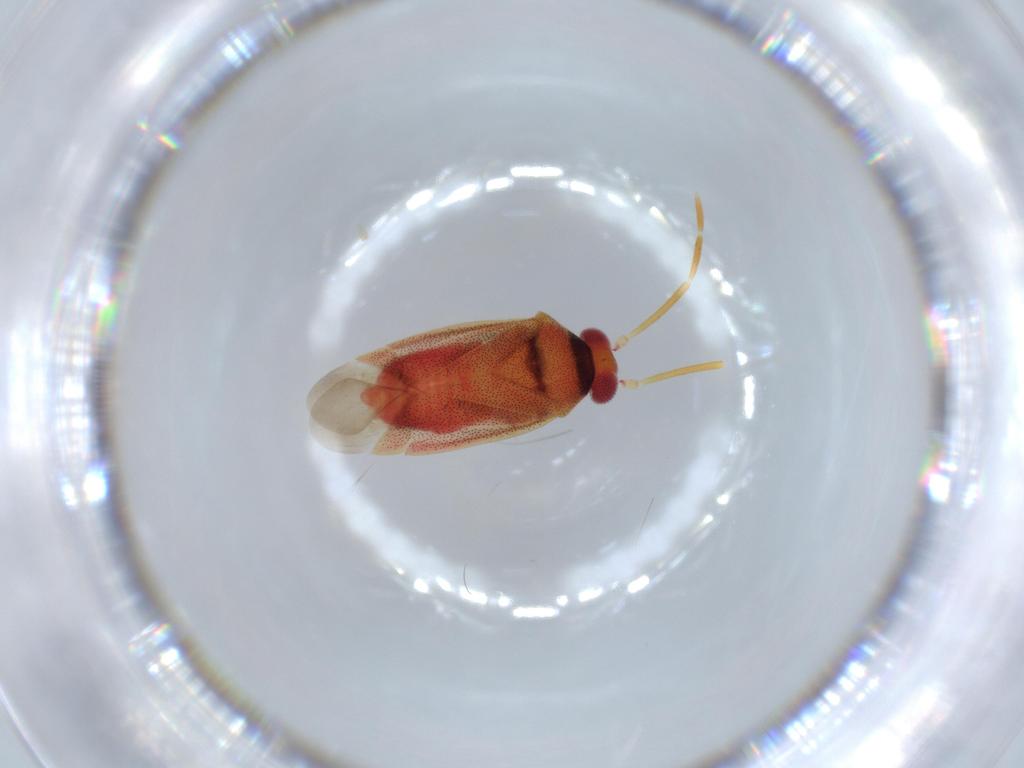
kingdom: Animalia
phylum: Arthropoda
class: Insecta
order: Hemiptera
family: Miridae
